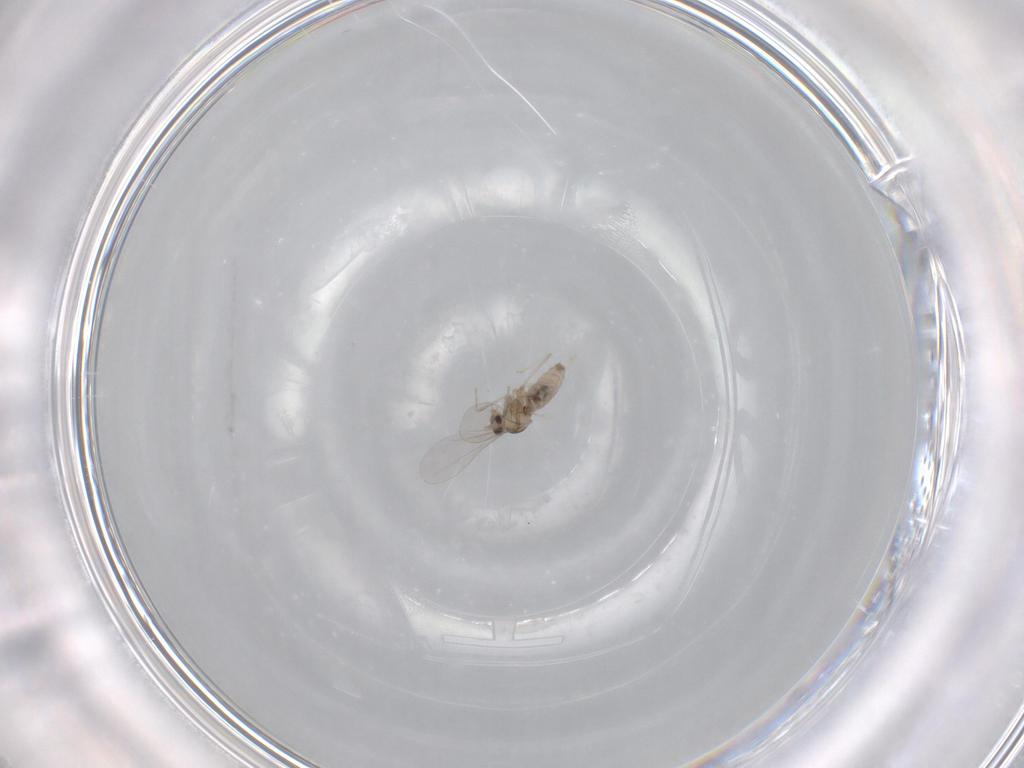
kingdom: Animalia
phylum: Arthropoda
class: Insecta
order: Diptera
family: Cecidomyiidae
